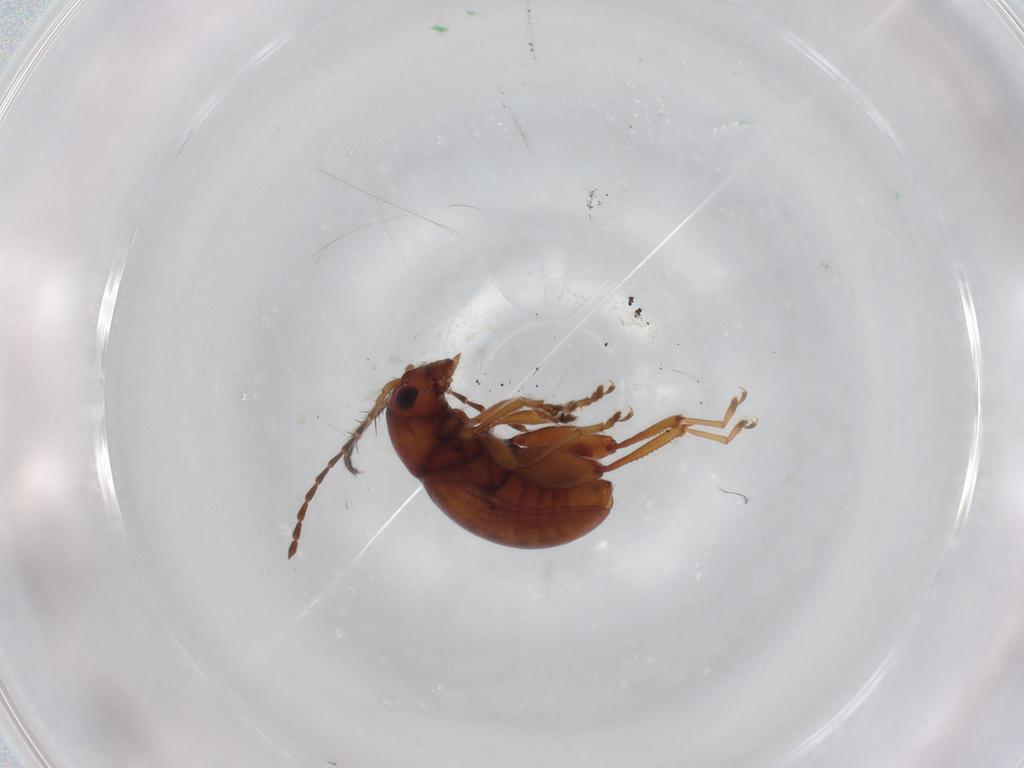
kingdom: Animalia
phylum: Arthropoda
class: Insecta
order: Coleoptera
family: Chrysomelidae
